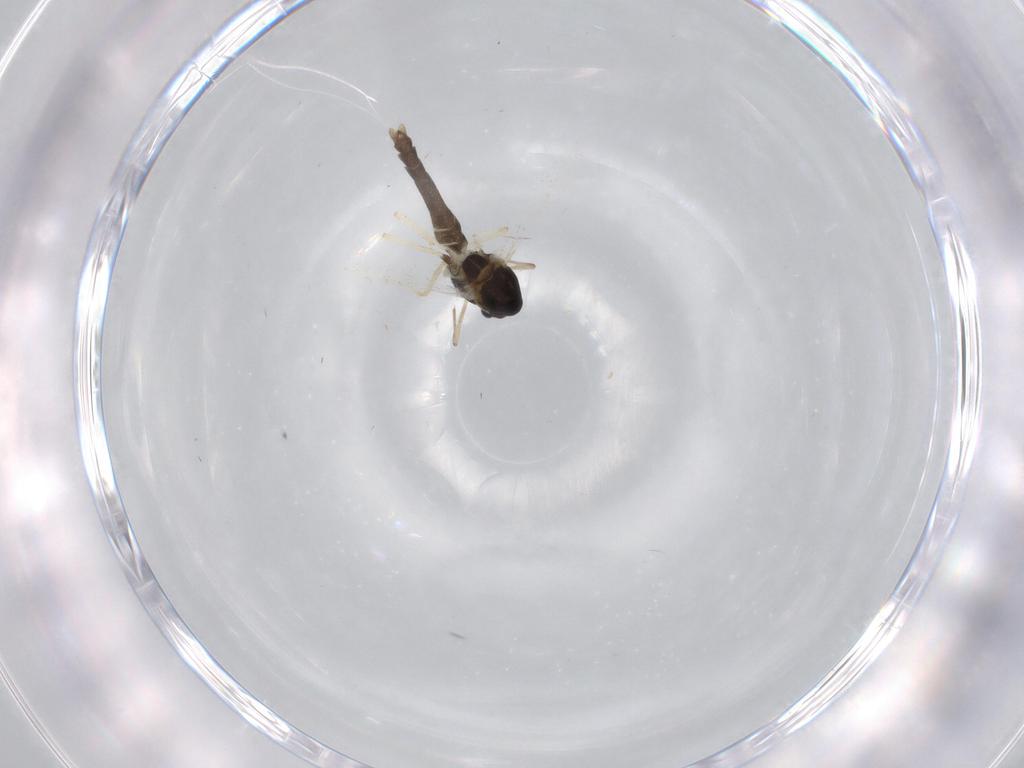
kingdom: Animalia
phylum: Arthropoda
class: Insecta
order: Diptera
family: Chironomidae
